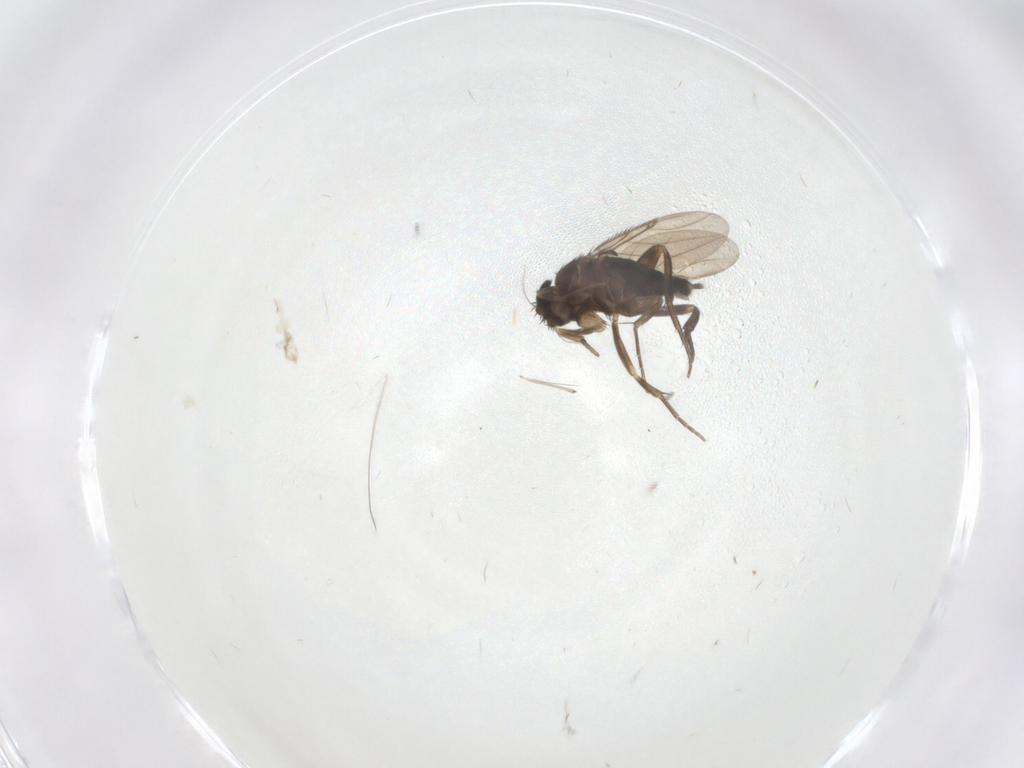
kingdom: Animalia
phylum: Arthropoda
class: Insecta
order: Diptera
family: Phoridae
